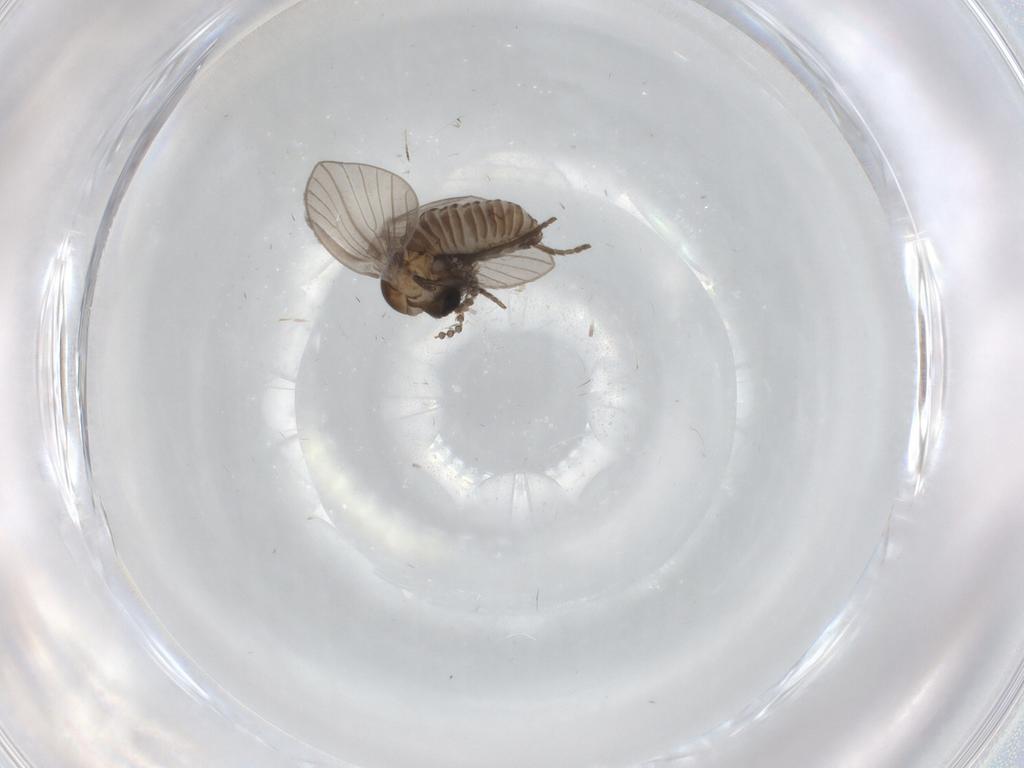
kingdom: Animalia
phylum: Arthropoda
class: Insecta
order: Diptera
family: Psychodidae
